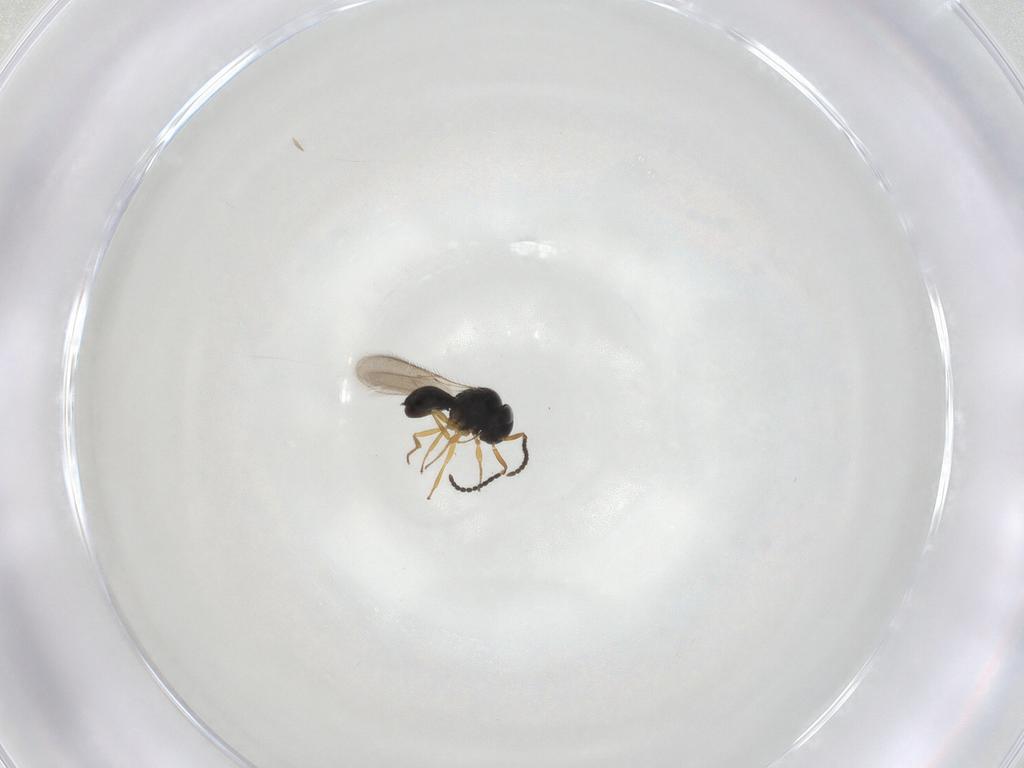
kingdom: Animalia
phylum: Arthropoda
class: Insecta
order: Hymenoptera
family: Scelionidae
